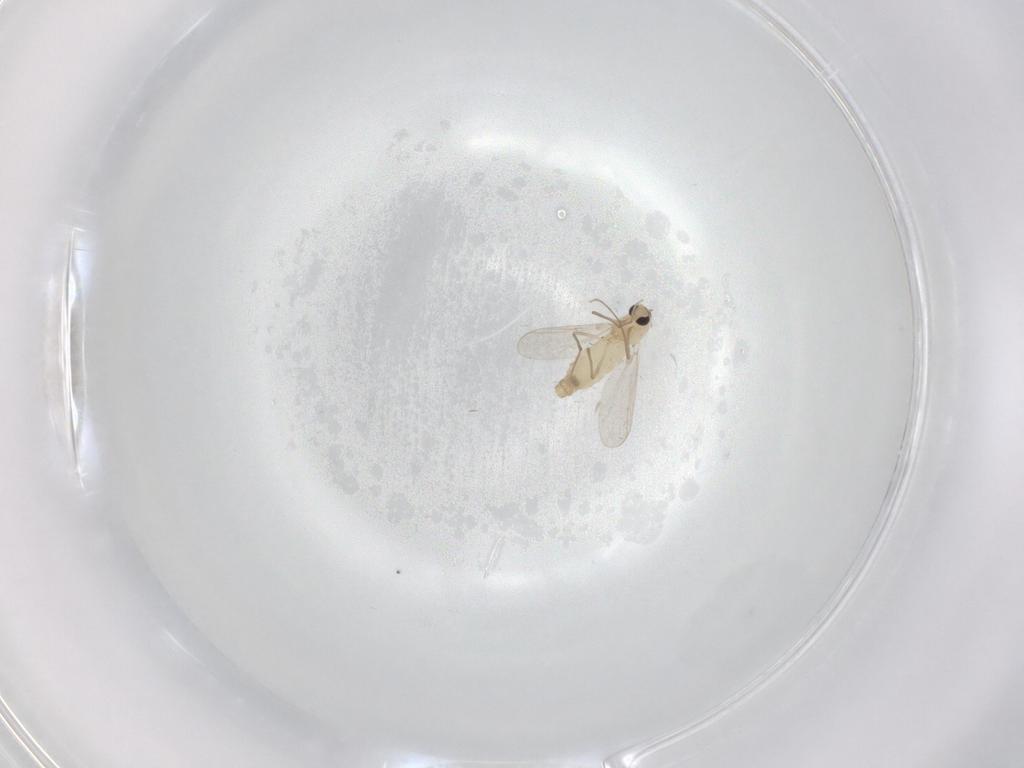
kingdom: Animalia
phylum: Arthropoda
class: Insecta
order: Diptera
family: Chironomidae
